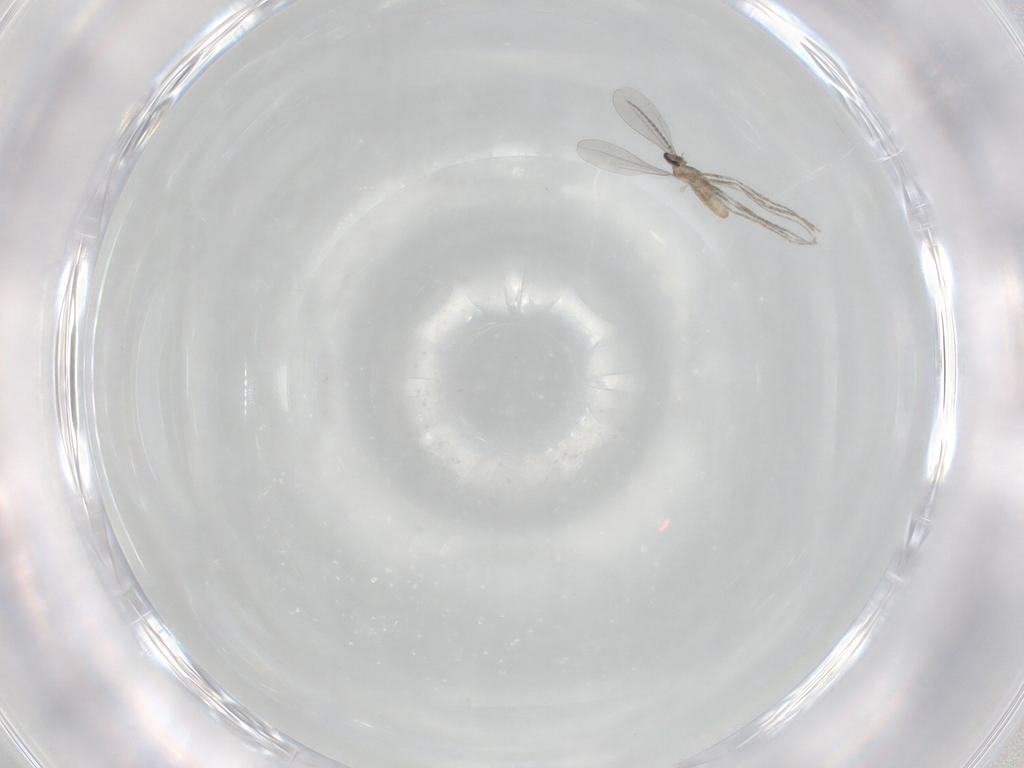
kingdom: Animalia
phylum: Arthropoda
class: Insecta
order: Diptera
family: Cecidomyiidae
